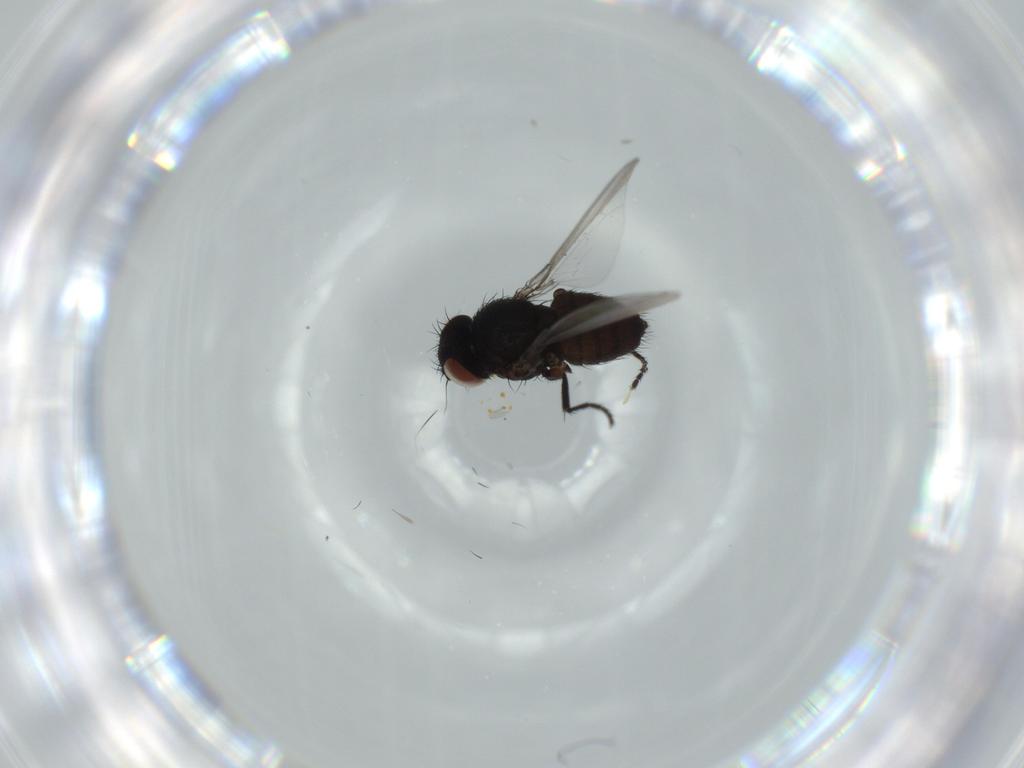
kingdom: Animalia
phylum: Arthropoda
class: Insecta
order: Diptera
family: Milichiidae
